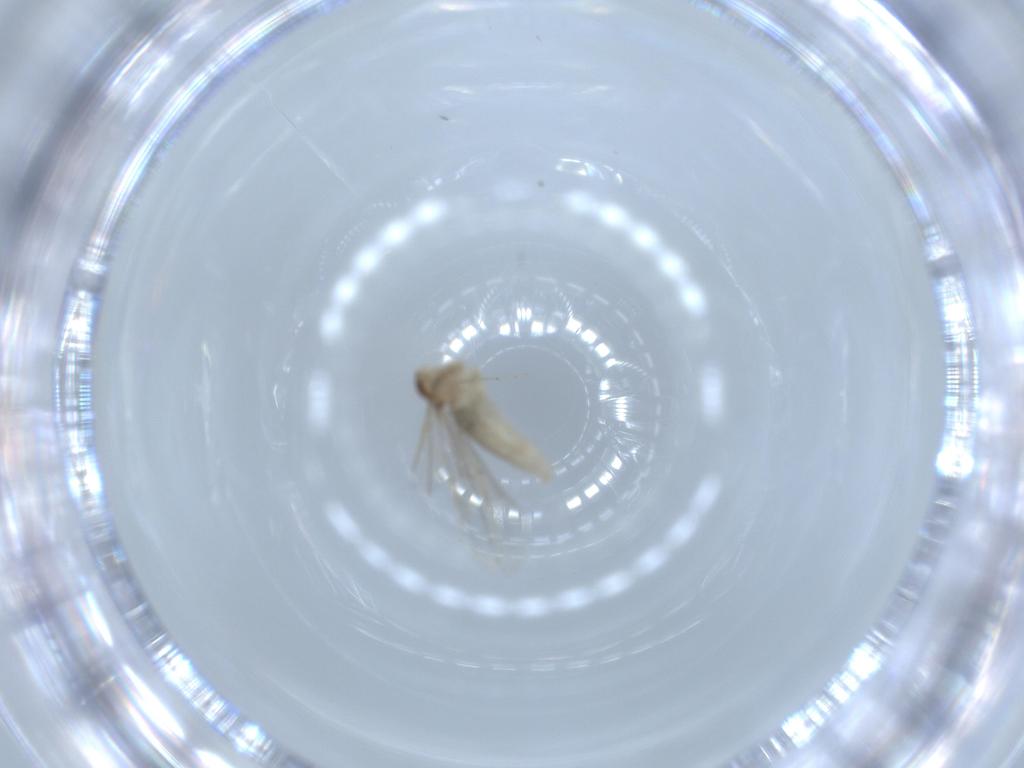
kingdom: Animalia
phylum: Arthropoda
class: Insecta
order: Diptera
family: Cecidomyiidae
